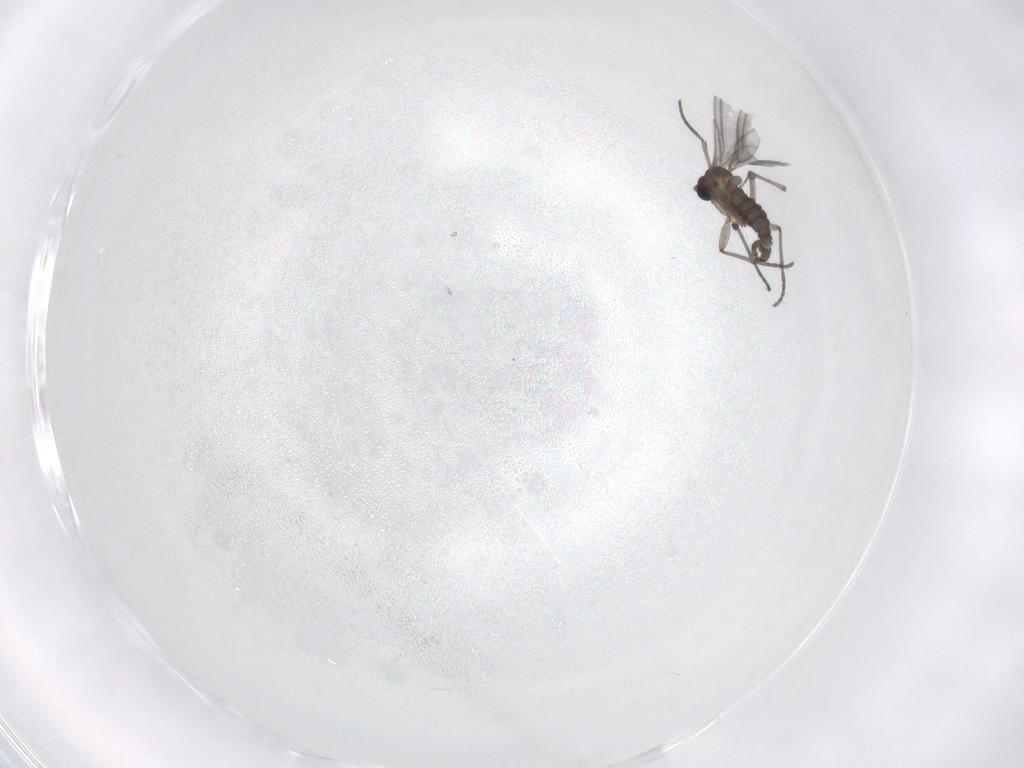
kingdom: Animalia
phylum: Arthropoda
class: Insecta
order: Diptera
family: Sciaridae
